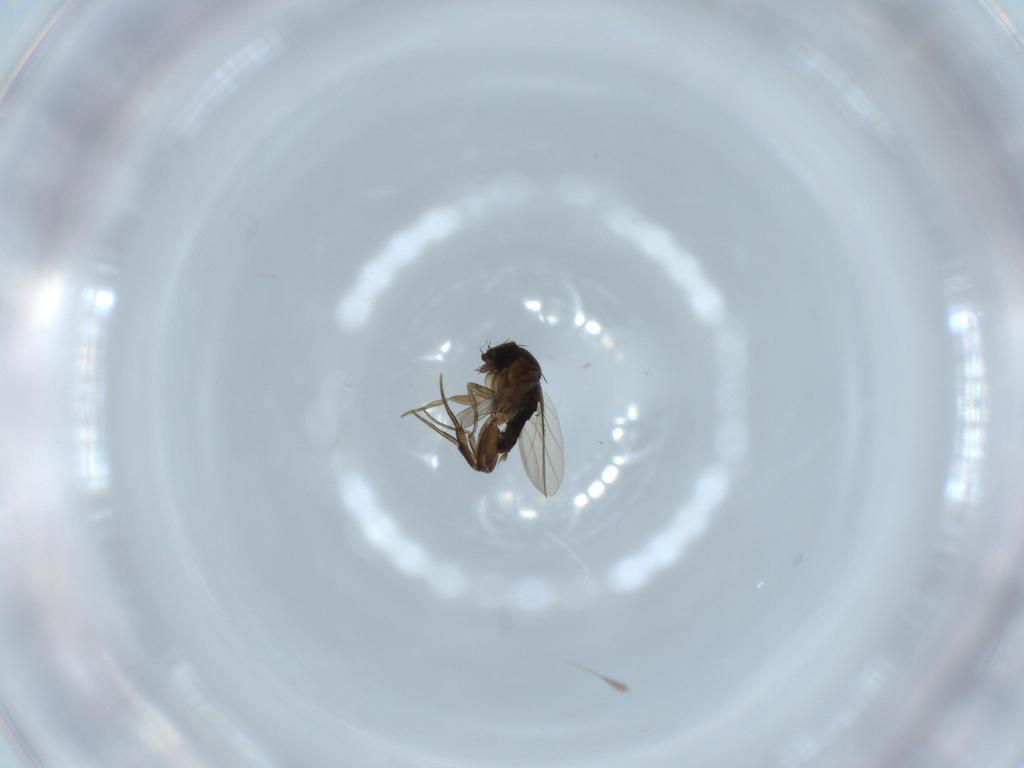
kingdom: Animalia
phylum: Arthropoda
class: Insecta
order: Diptera
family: Phoridae
